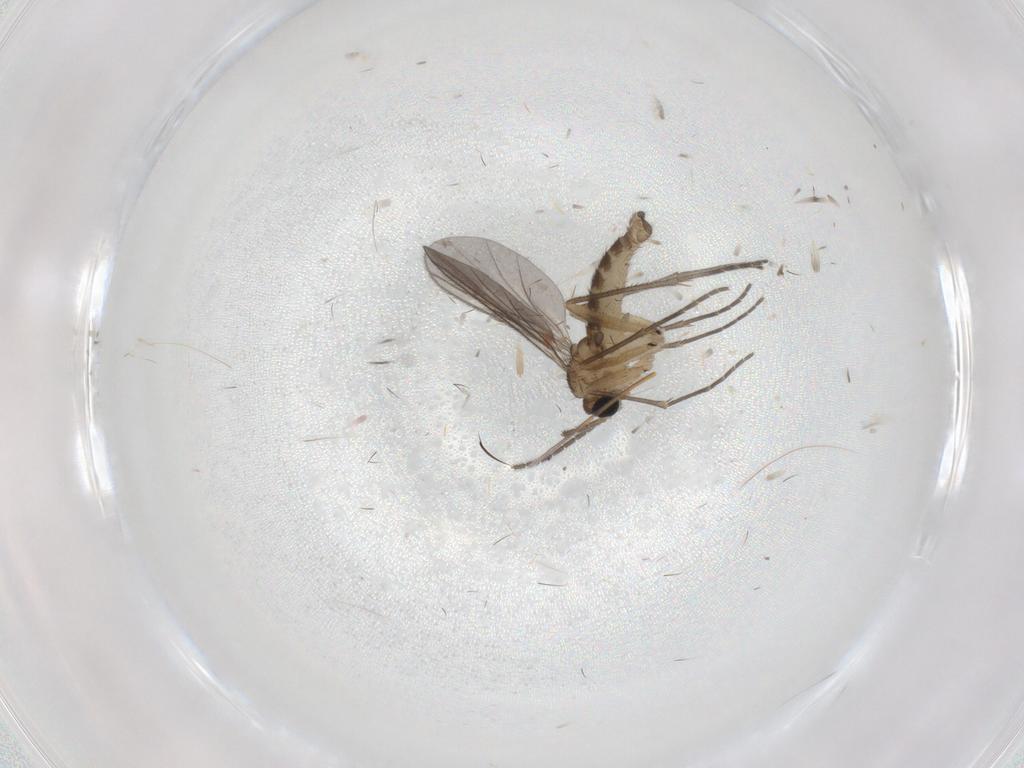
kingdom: Animalia
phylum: Arthropoda
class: Insecta
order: Diptera
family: Sciaridae
